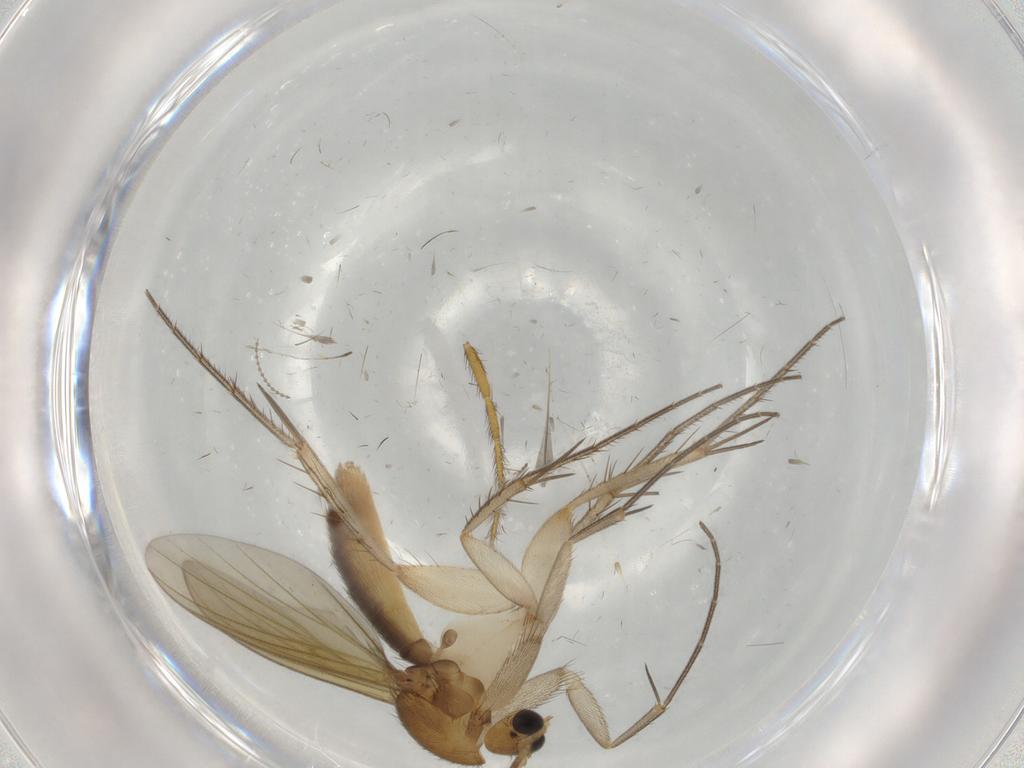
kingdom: Animalia
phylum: Arthropoda
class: Insecta
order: Diptera
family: Mycetophilidae
